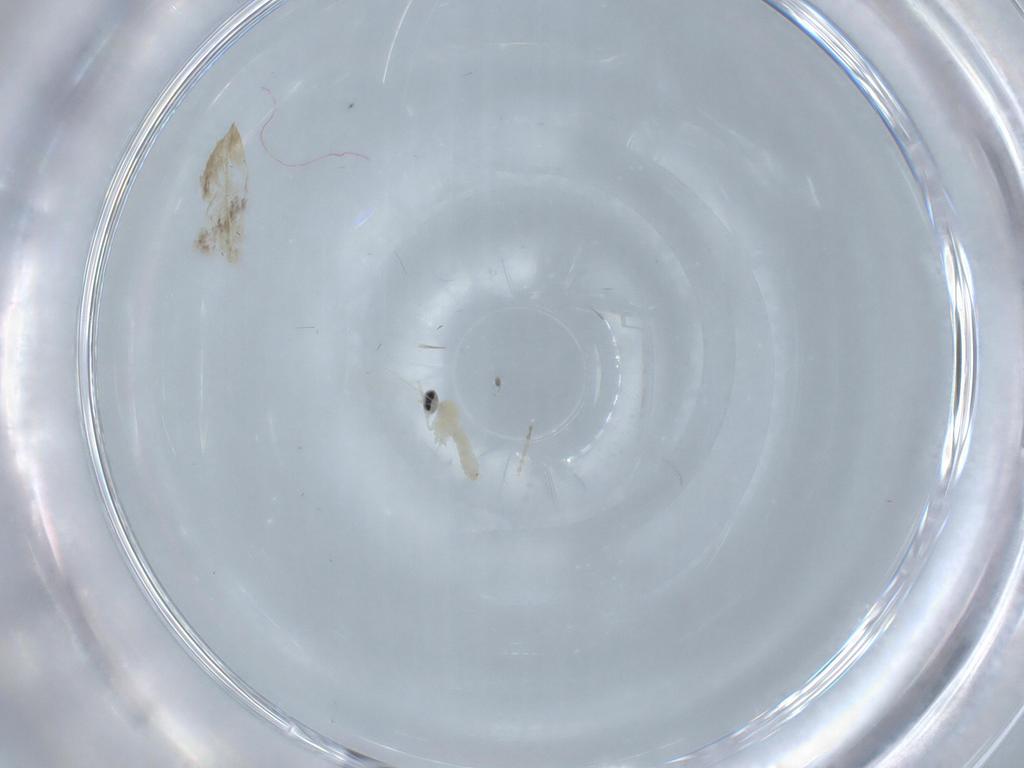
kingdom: Animalia
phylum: Arthropoda
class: Insecta
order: Diptera
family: Cecidomyiidae
